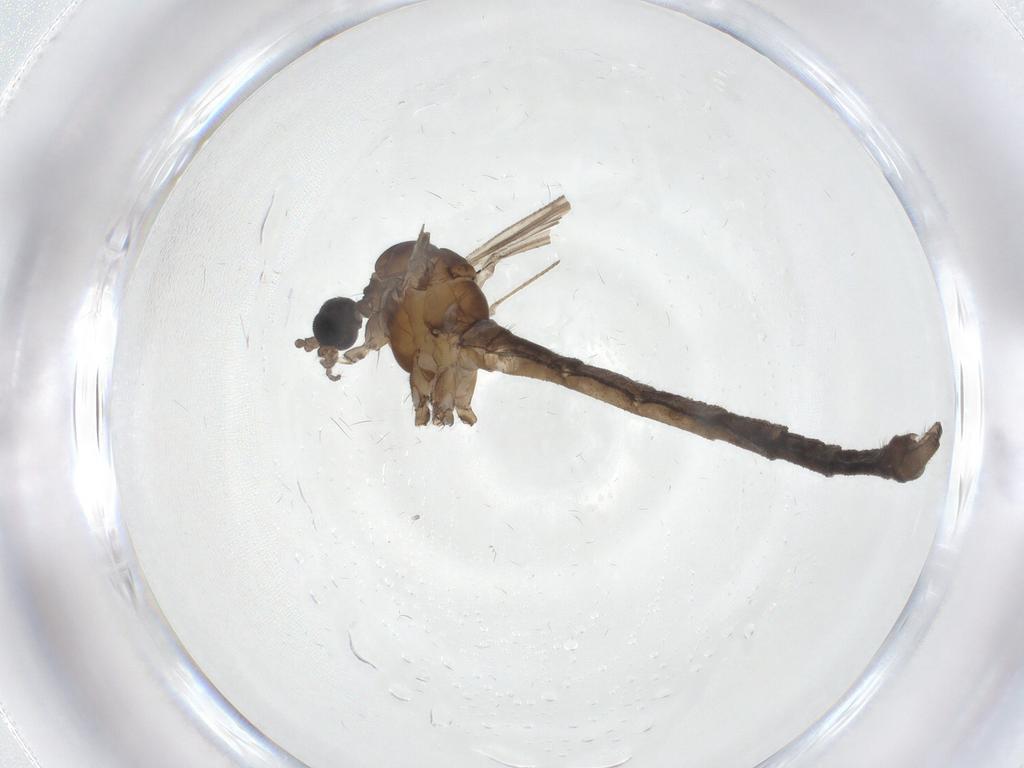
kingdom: Animalia
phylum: Arthropoda
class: Insecta
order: Diptera
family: Limoniidae
